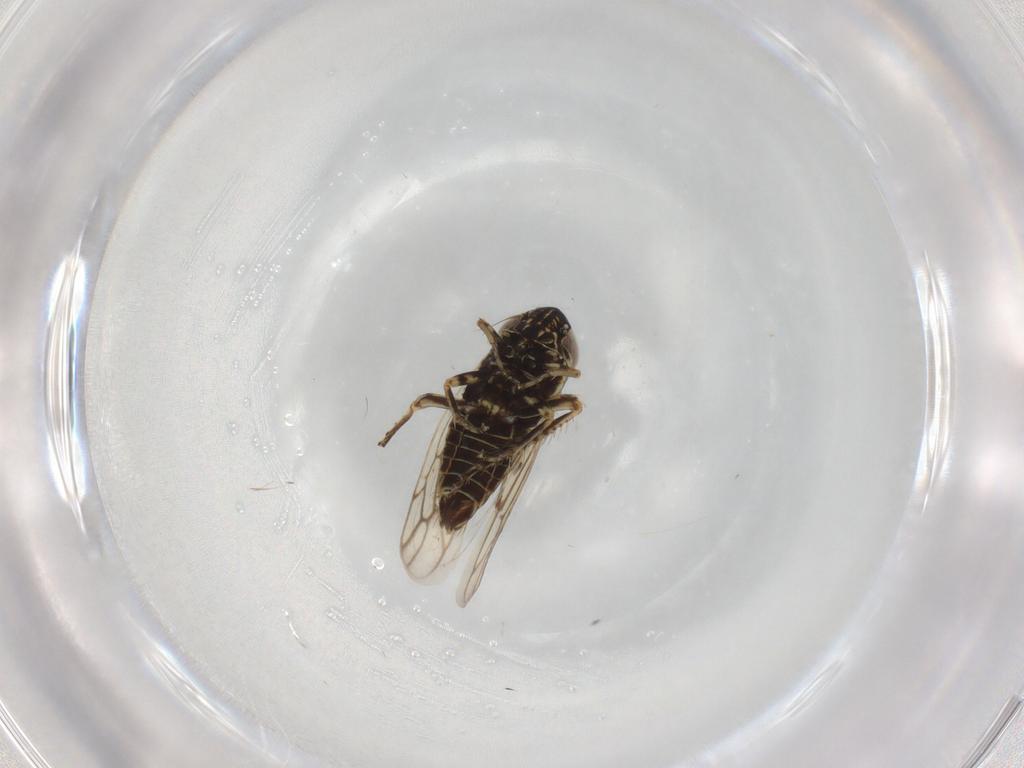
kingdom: Animalia
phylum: Arthropoda
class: Insecta
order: Hemiptera
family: Cicadellidae
